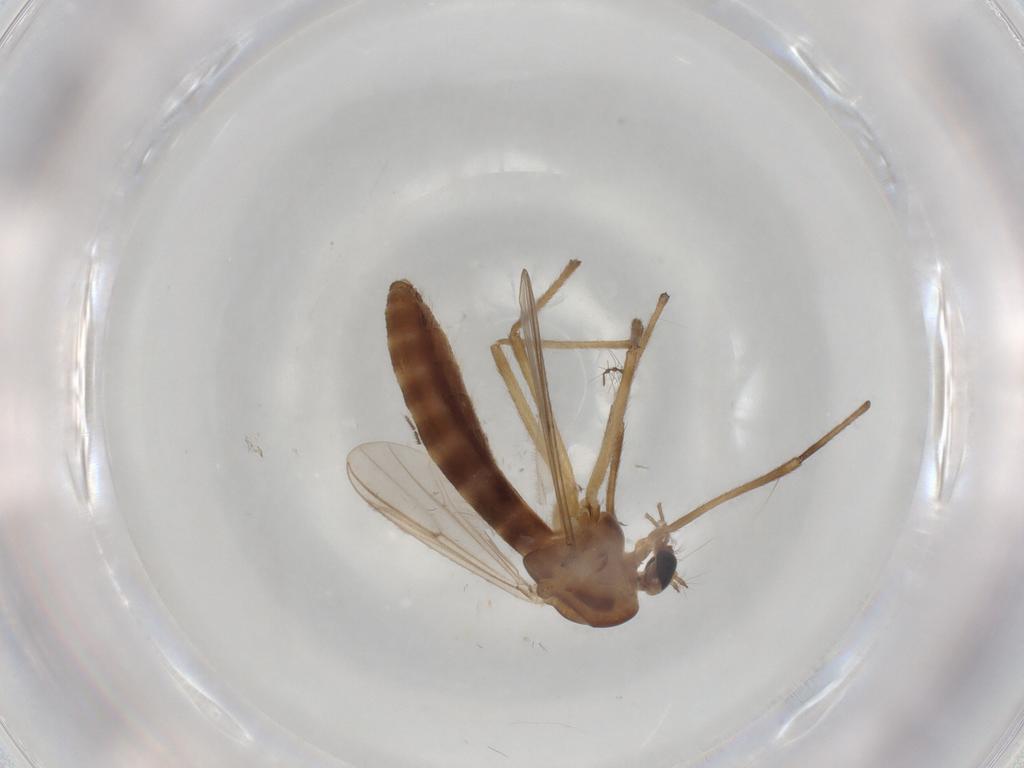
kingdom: Animalia
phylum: Arthropoda
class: Insecta
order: Diptera
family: Chironomidae
